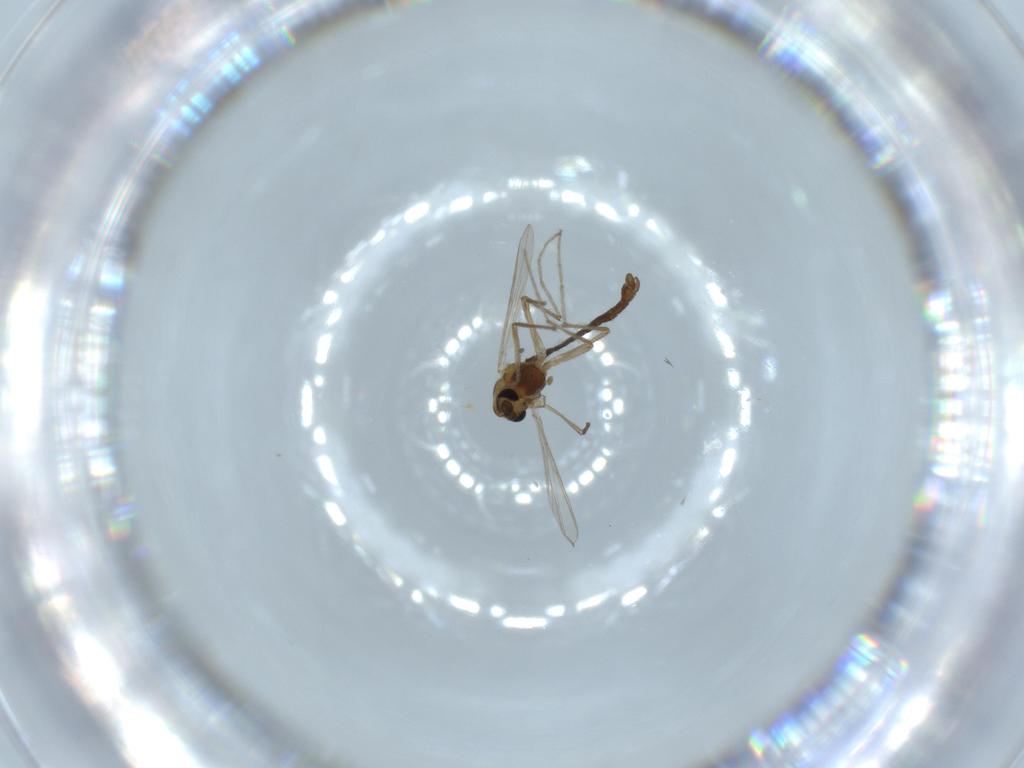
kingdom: Animalia
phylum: Arthropoda
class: Insecta
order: Diptera
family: Chironomidae
